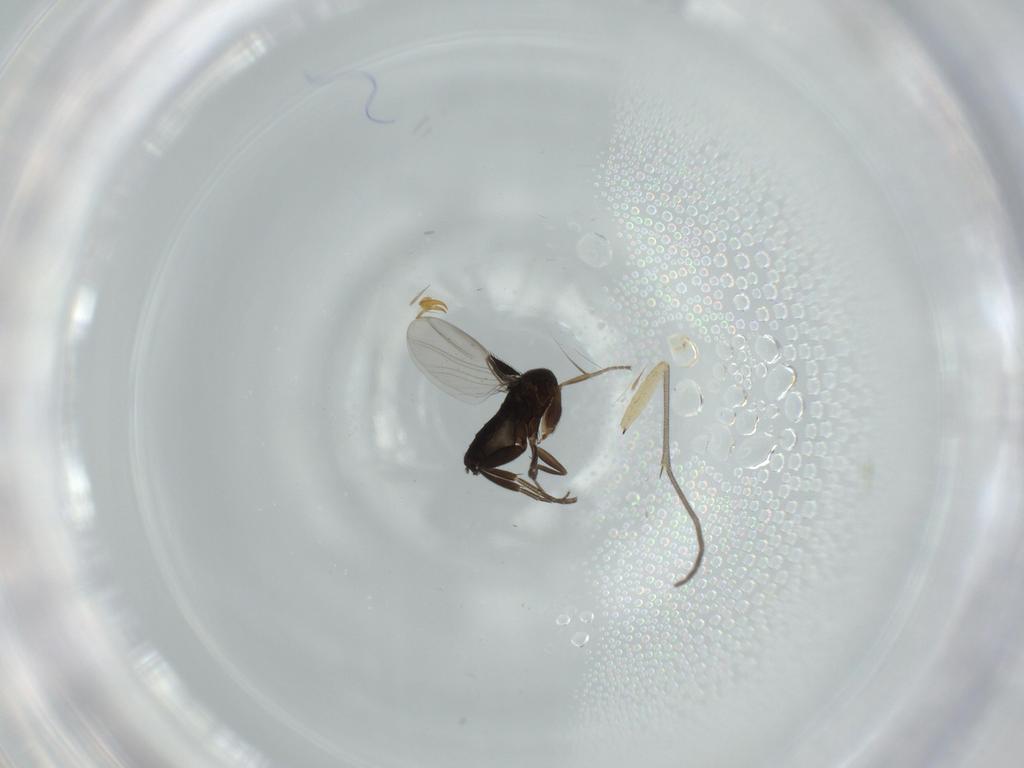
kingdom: Animalia
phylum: Arthropoda
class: Insecta
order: Diptera
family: Phoridae
